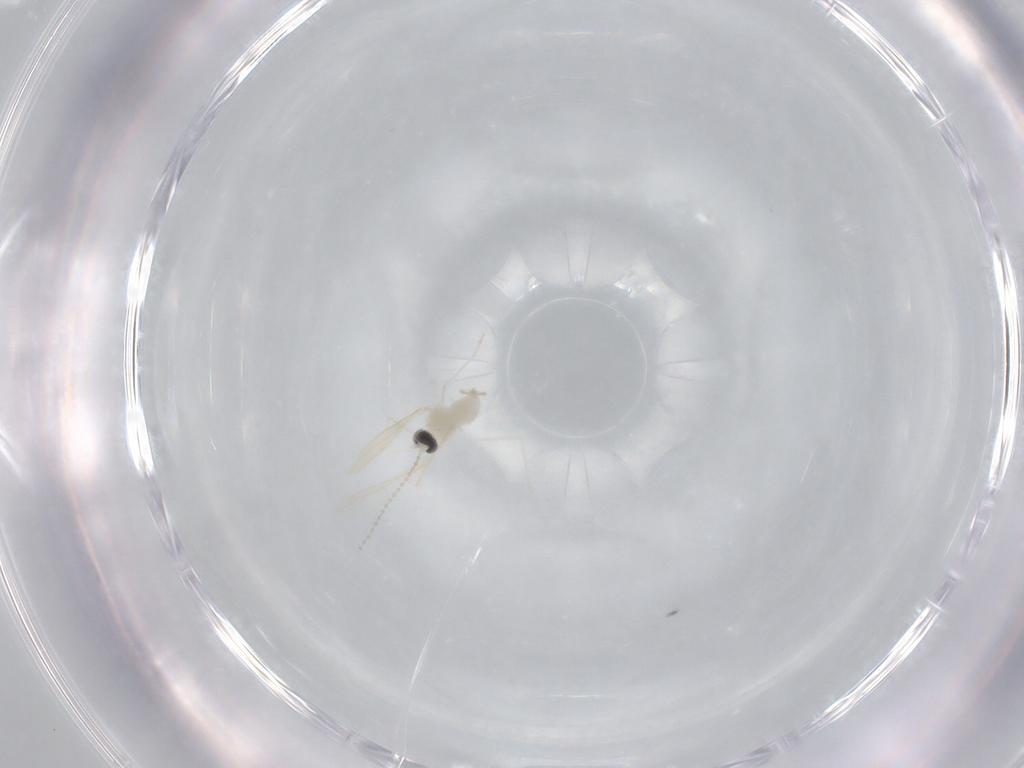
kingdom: Animalia
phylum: Arthropoda
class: Insecta
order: Diptera
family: Cecidomyiidae
